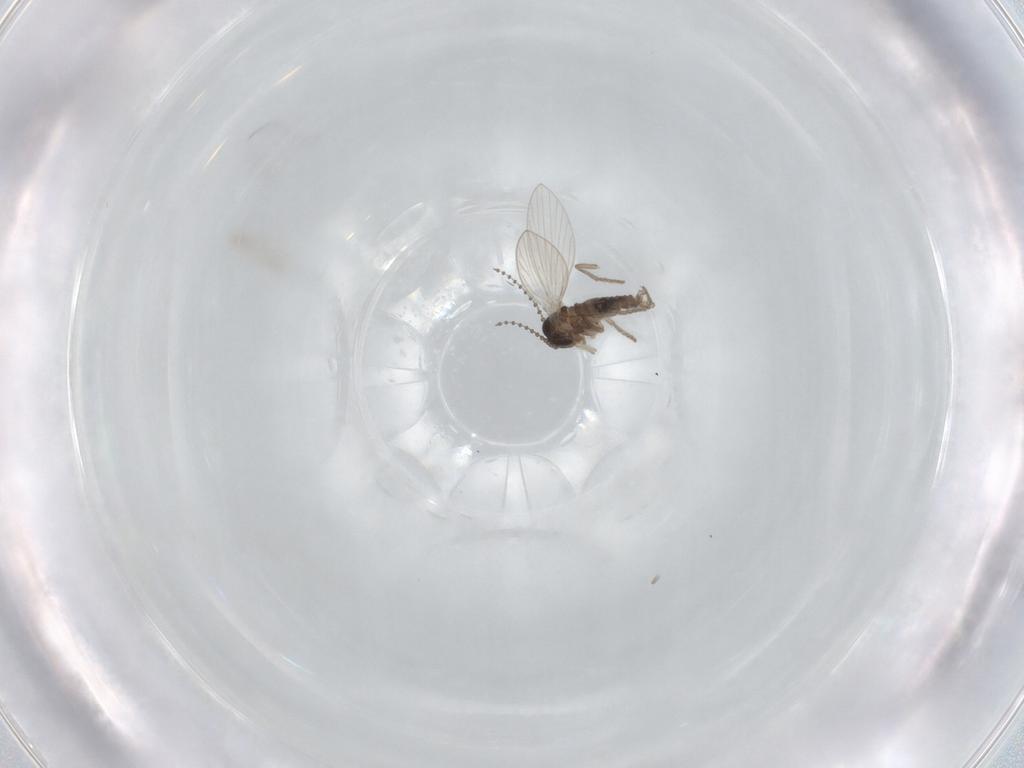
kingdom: Animalia
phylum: Arthropoda
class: Insecta
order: Diptera
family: Psychodidae
